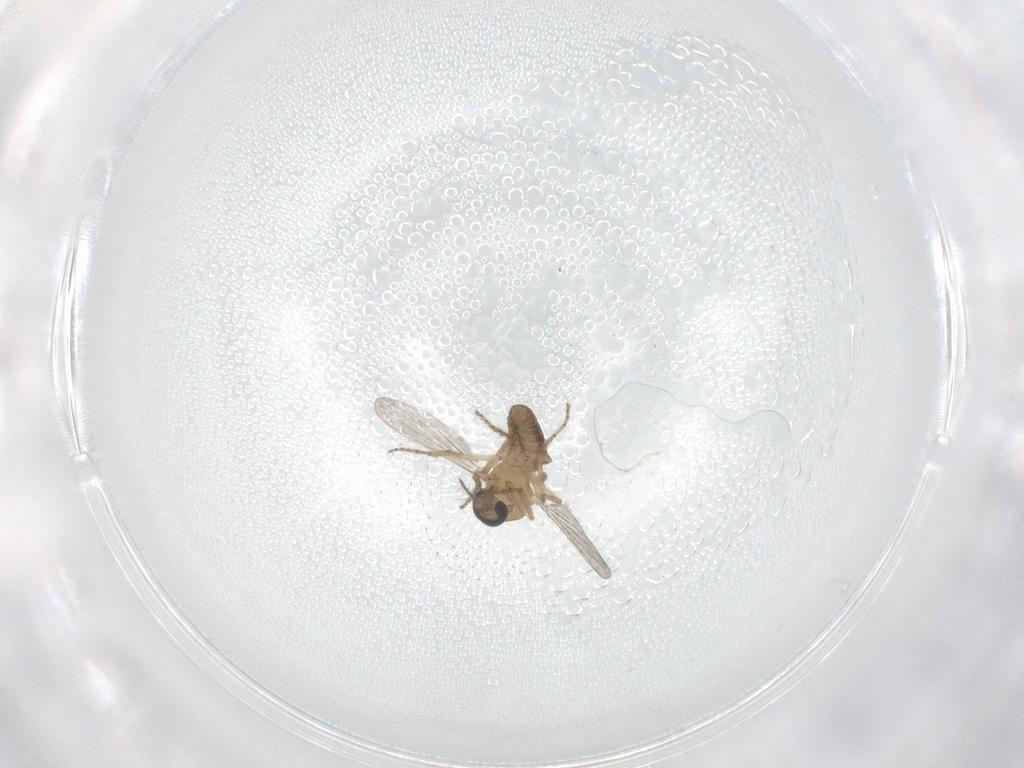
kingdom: Animalia
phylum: Arthropoda
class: Insecta
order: Diptera
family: Ceratopogonidae
